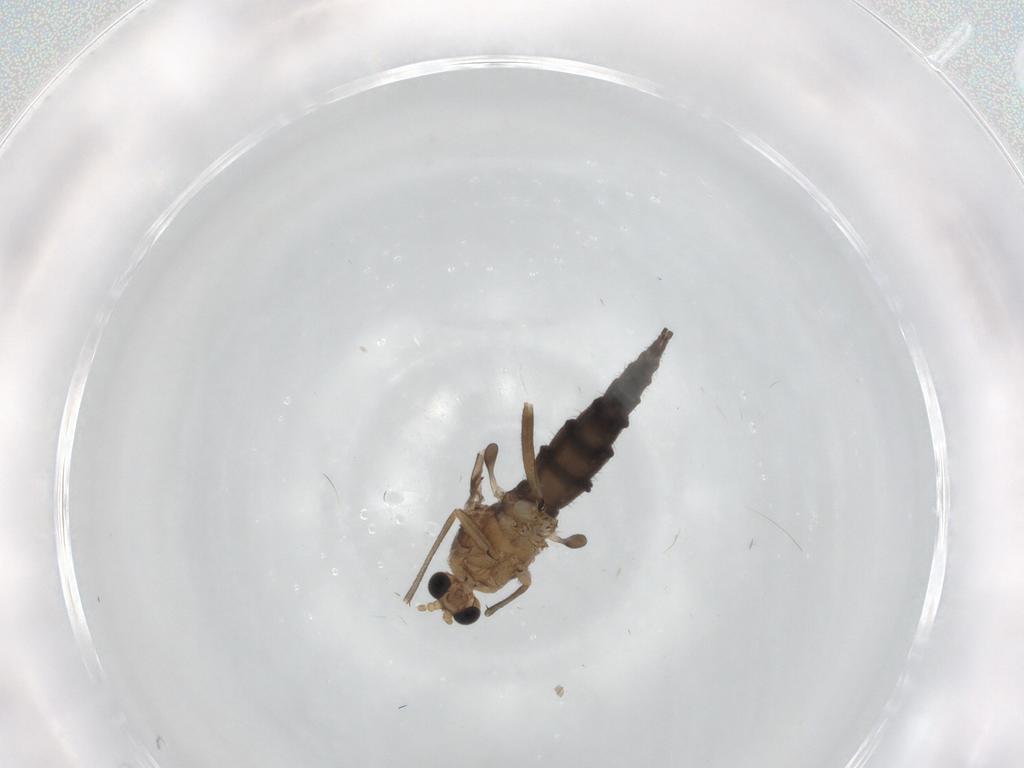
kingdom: Animalia
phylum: Arthropoda
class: Insecta
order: Diptera
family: Sciaridae
